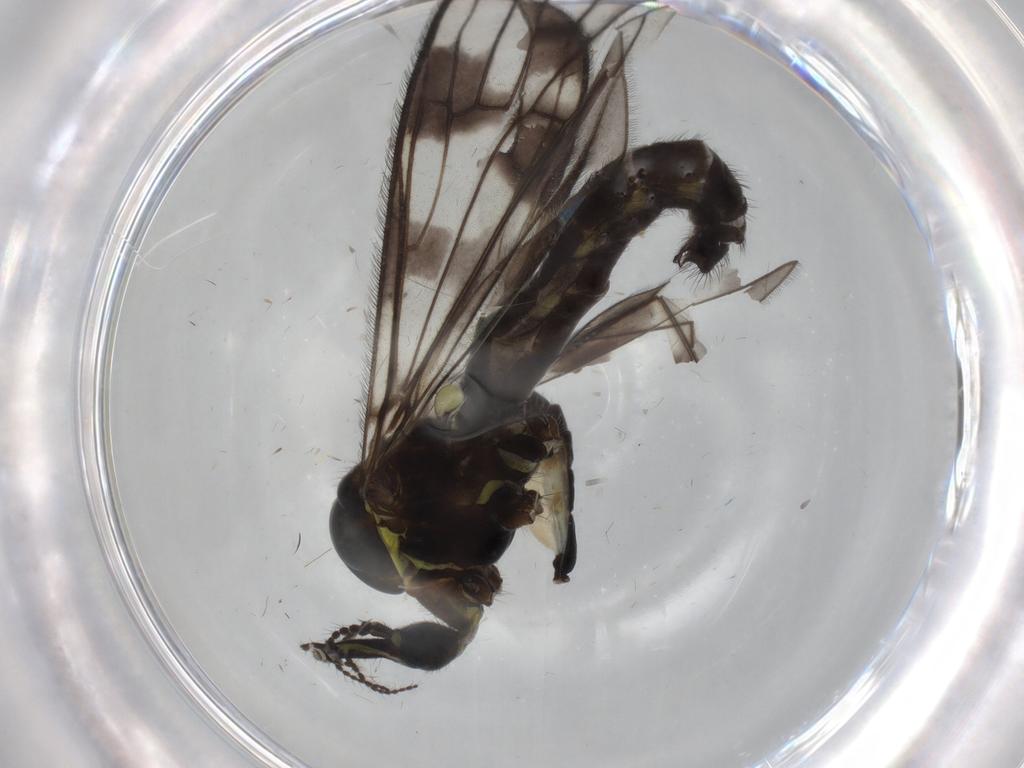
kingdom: Animalia
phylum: Arthropoda
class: Insecta
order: Diptera
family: Limoniidae
